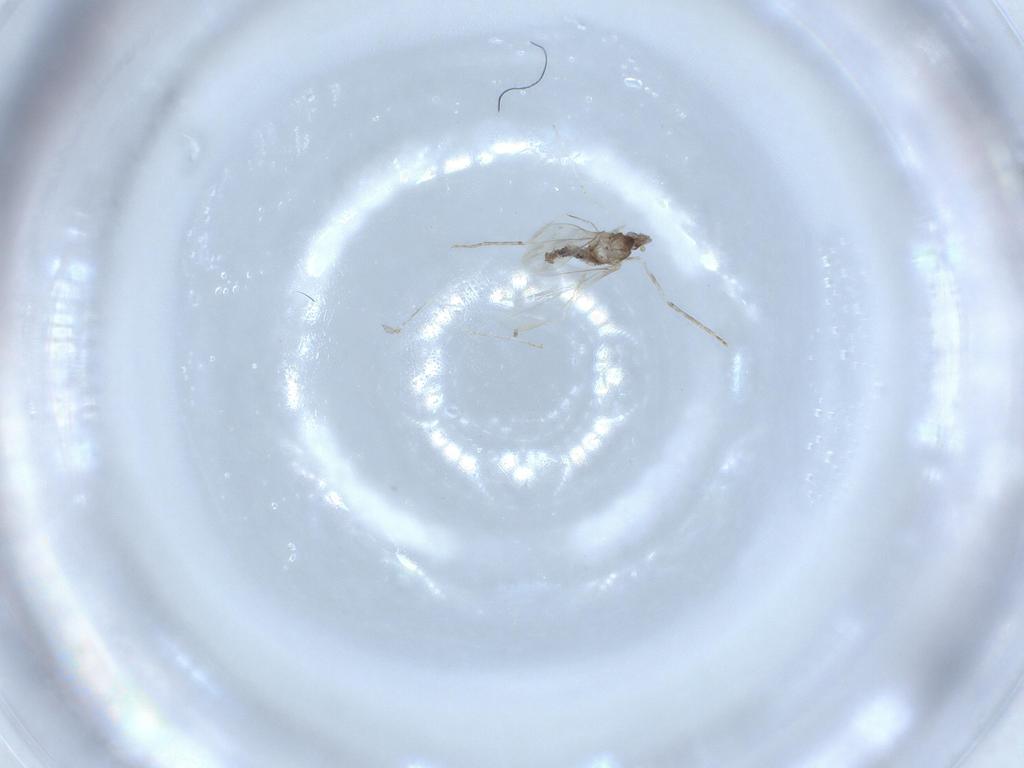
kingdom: Animalia
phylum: Arthropoda
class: Insecta
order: Diptera
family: Cecidomyiidae
